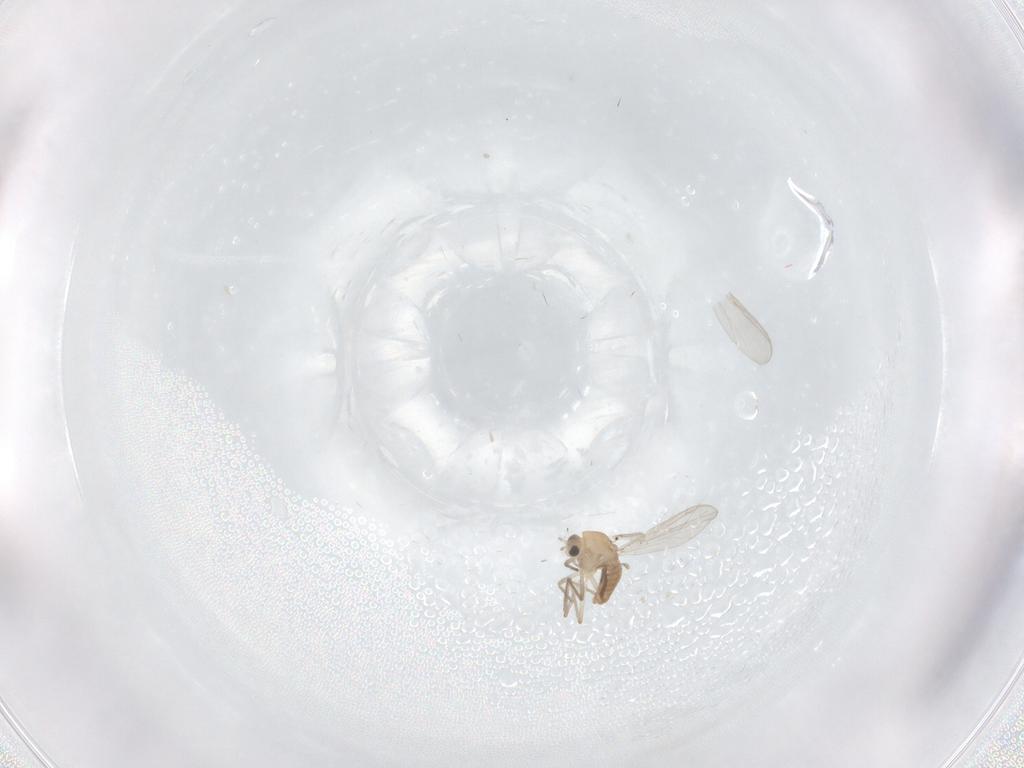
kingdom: Animalia
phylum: Arthropoda
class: Insecta
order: Diptera
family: Chironomidae
